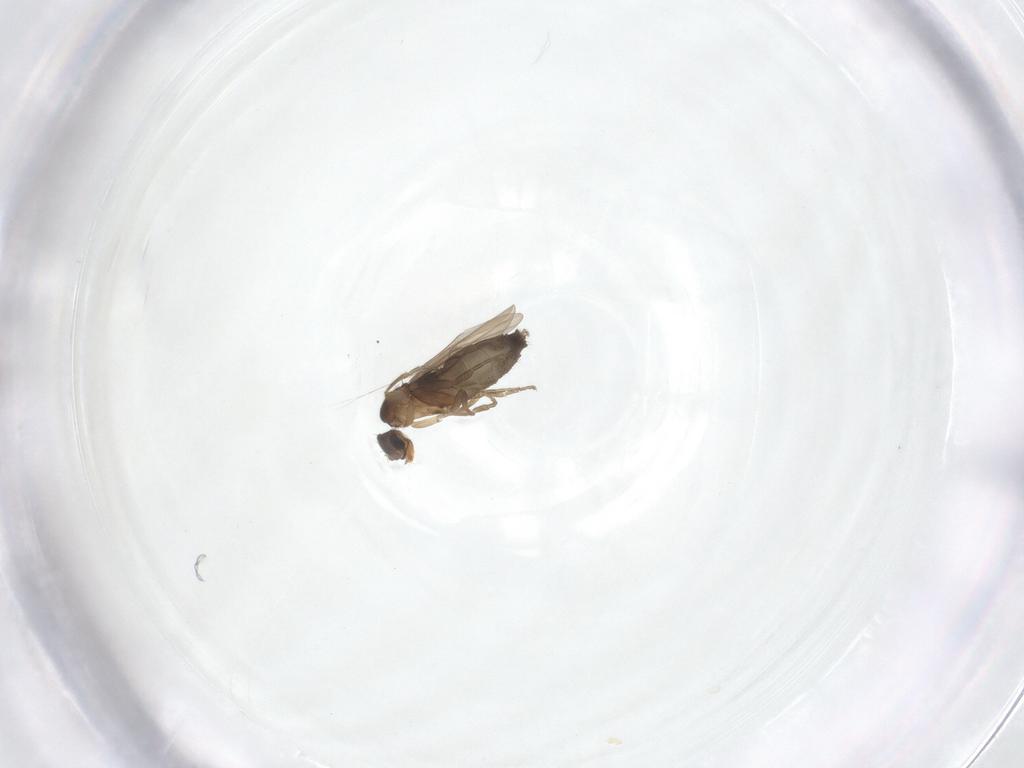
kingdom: Animalia
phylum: Arthropoda
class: Insecta
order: Diptera
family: Phoridae
